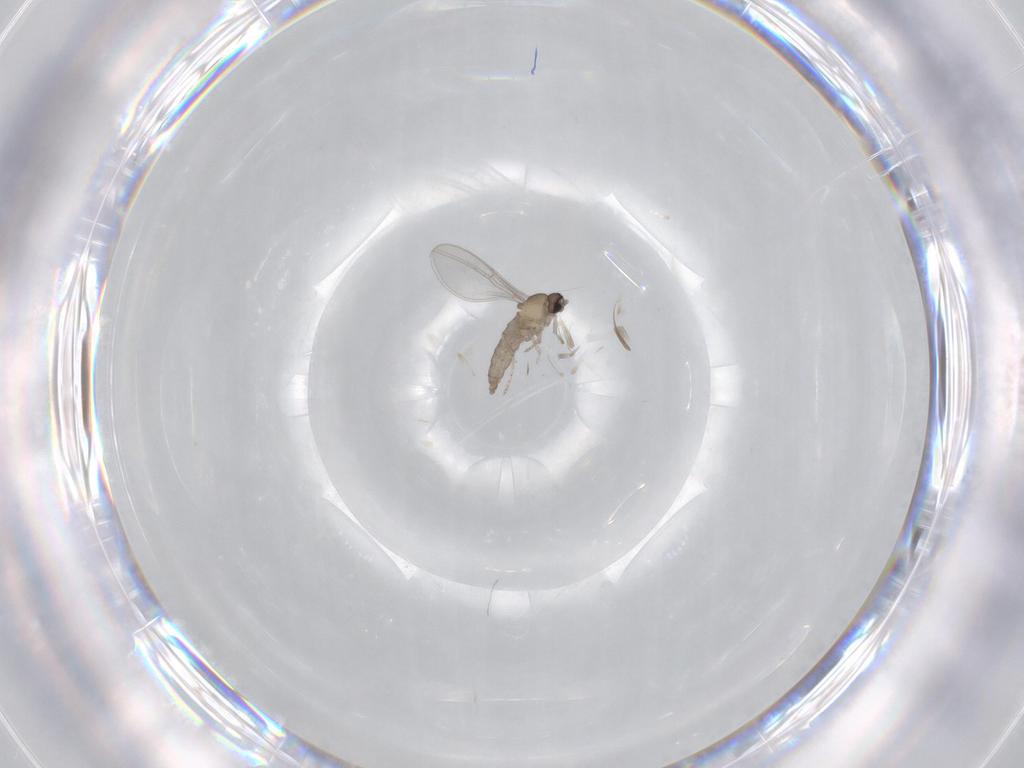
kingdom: Animalia
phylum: Arthropoda
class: Insecta
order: Diptera
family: Cecidomyiidae
